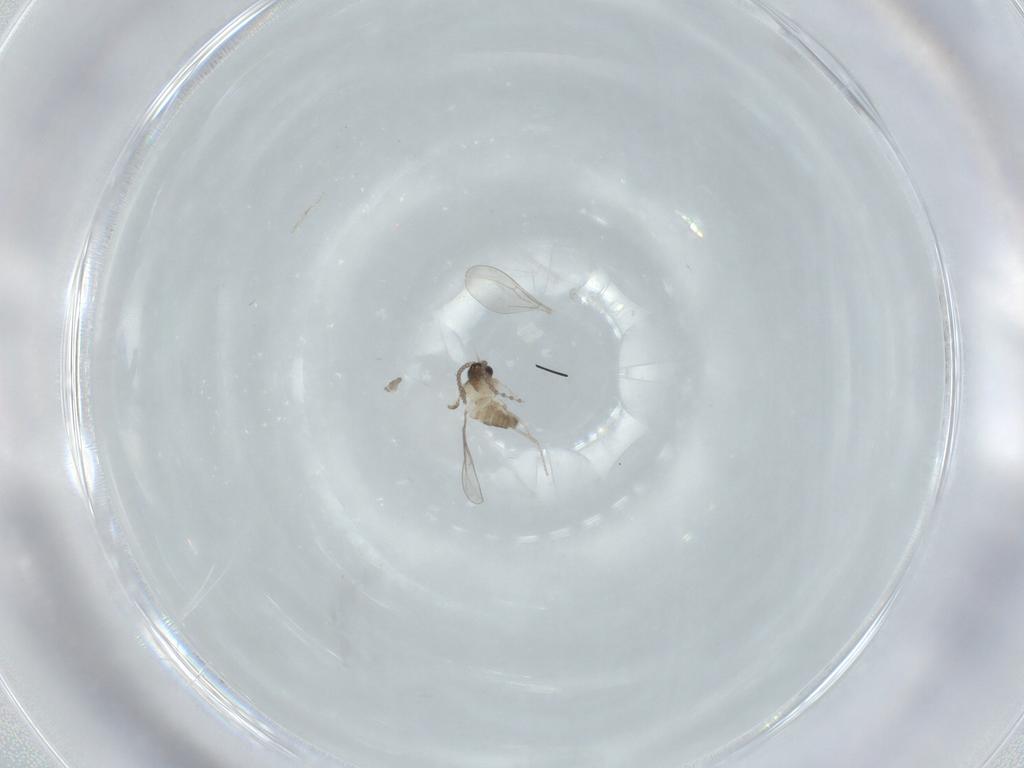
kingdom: Animalia
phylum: Arthropoda
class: Insecta
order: Diptera
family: Cecidomyiidae
